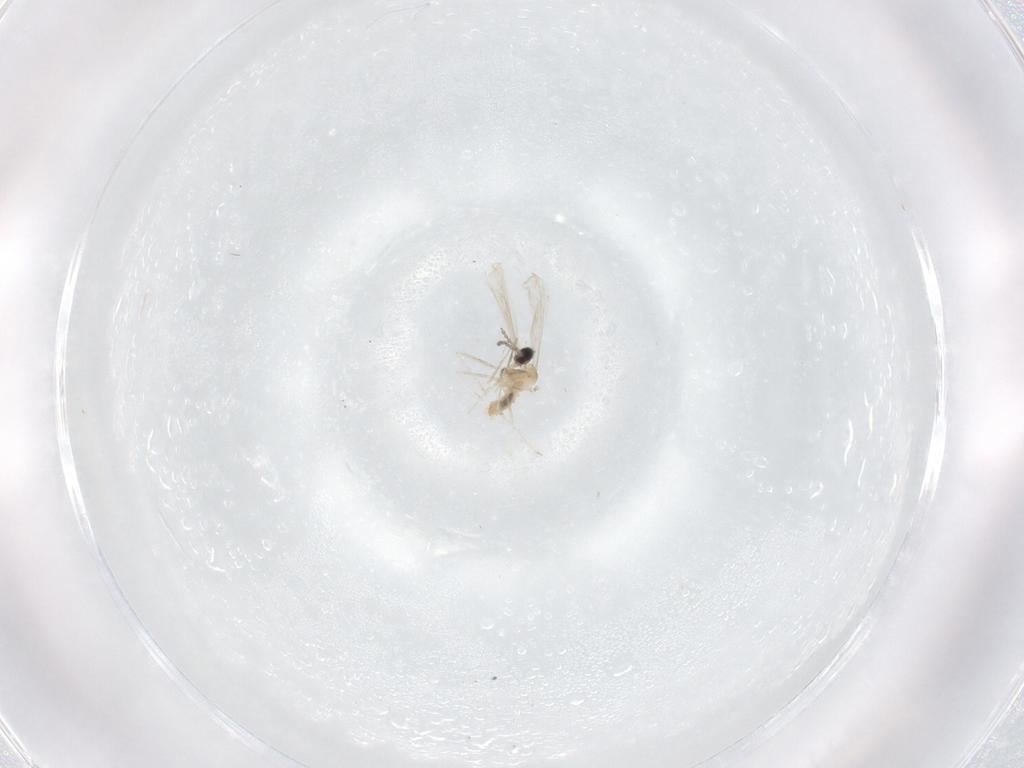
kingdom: Animalia
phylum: Arthropoda
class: Insecta
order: Diptera
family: Cecidomyiidae
